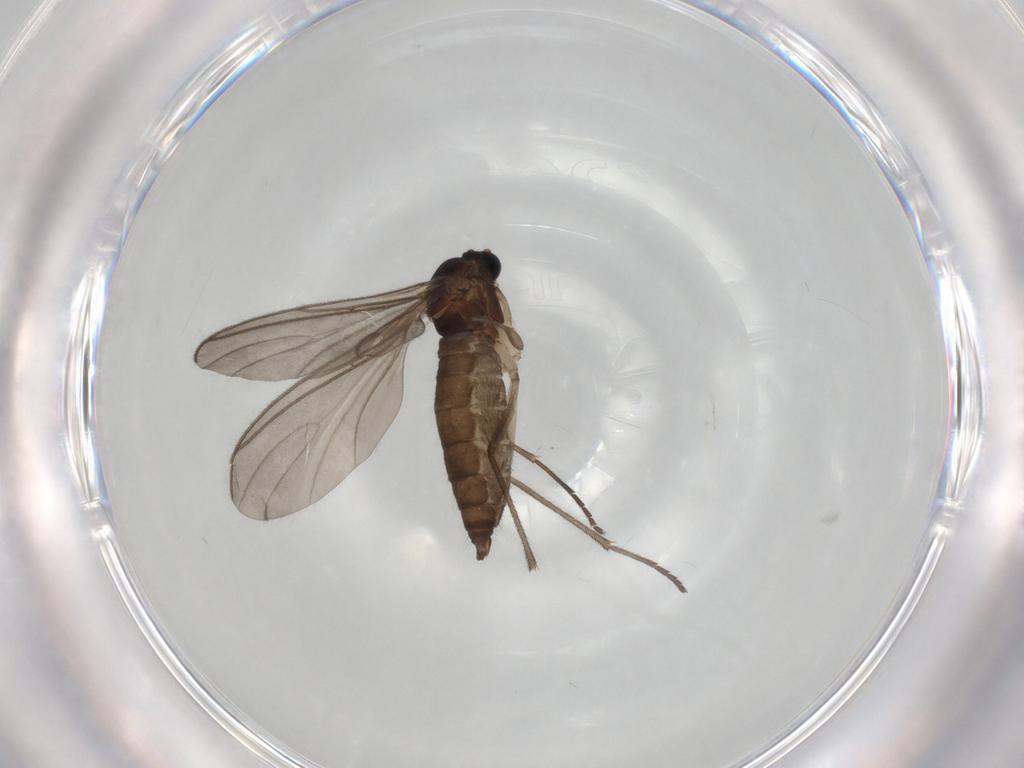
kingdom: Animalia
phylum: Arthropoda
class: Insecta
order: Diptera
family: Sciaridae
